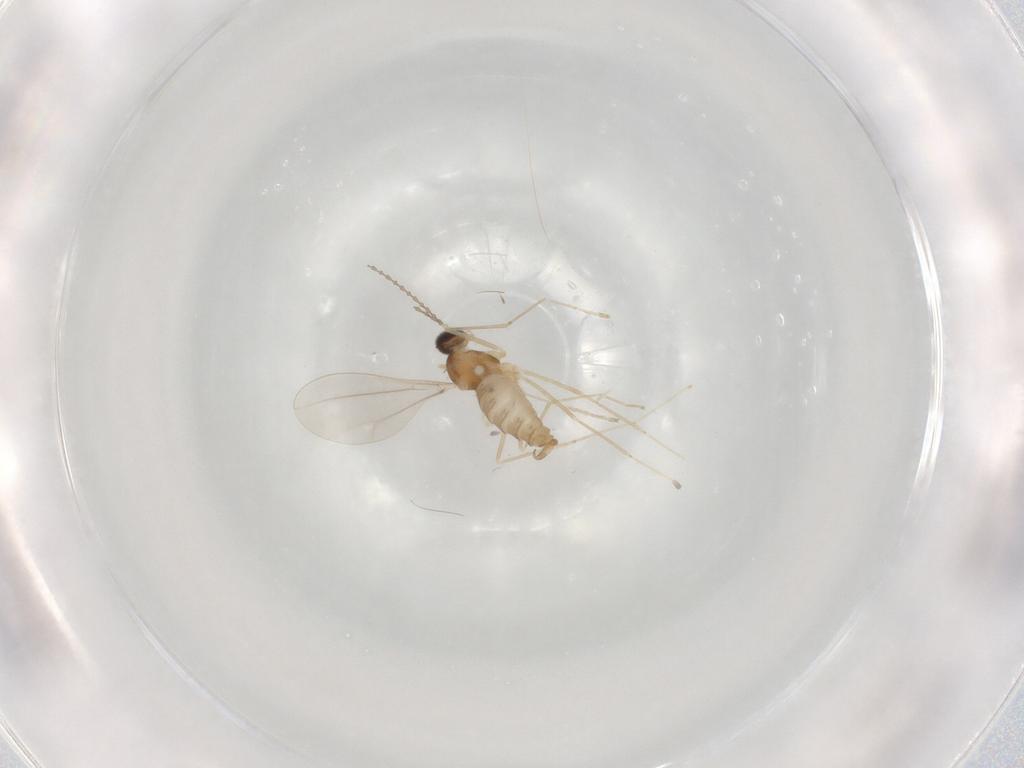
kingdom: Animalia
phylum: Arthropoda
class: Insecta
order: Diptera
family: Cecidomyiidae
